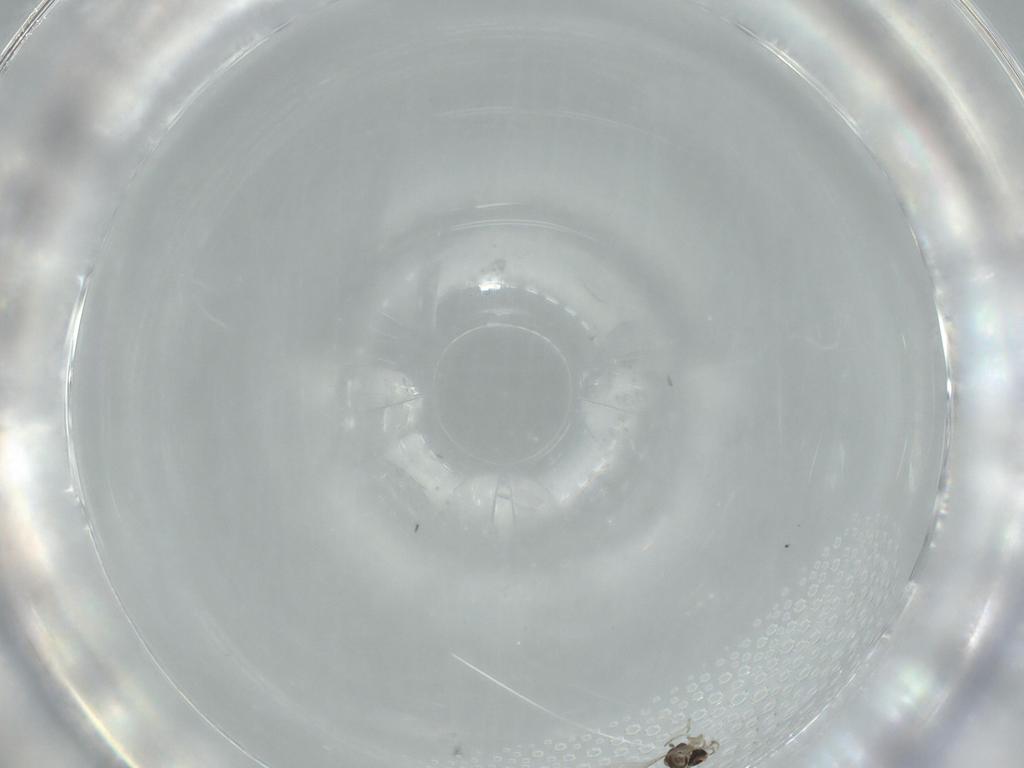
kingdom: Animalia
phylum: Arthropoda
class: Insecta
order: Diptera
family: Cecidomyiidae
